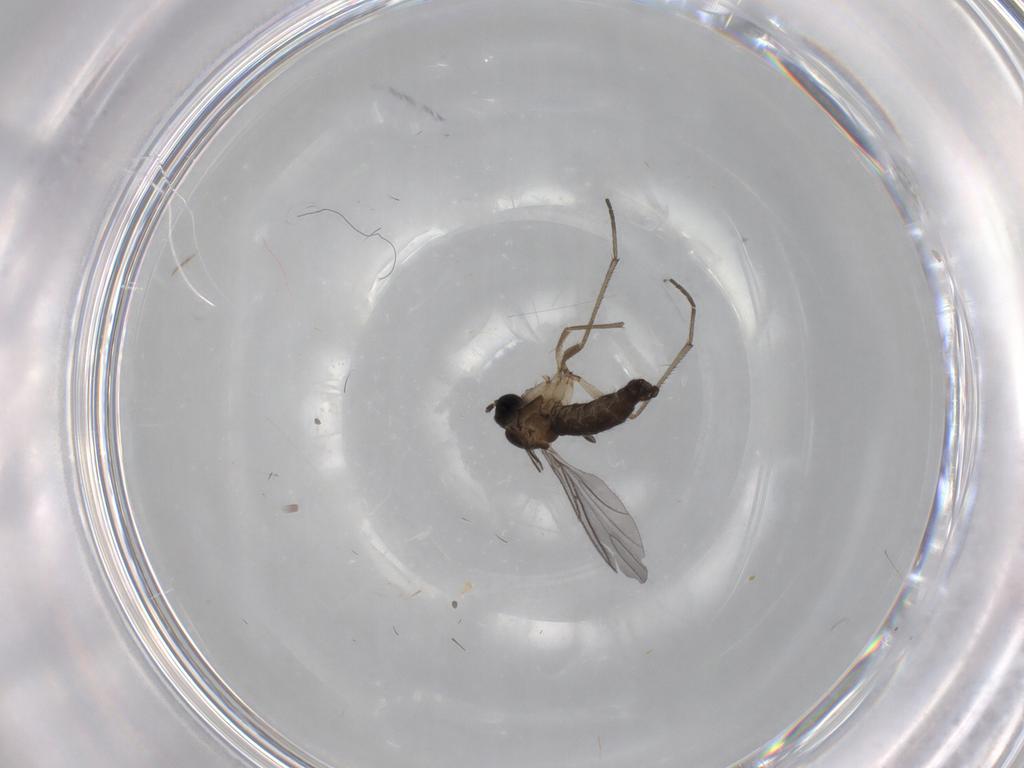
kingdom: Animalia
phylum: Arthropoda
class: Insecta
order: Diptera
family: Sciaridae
